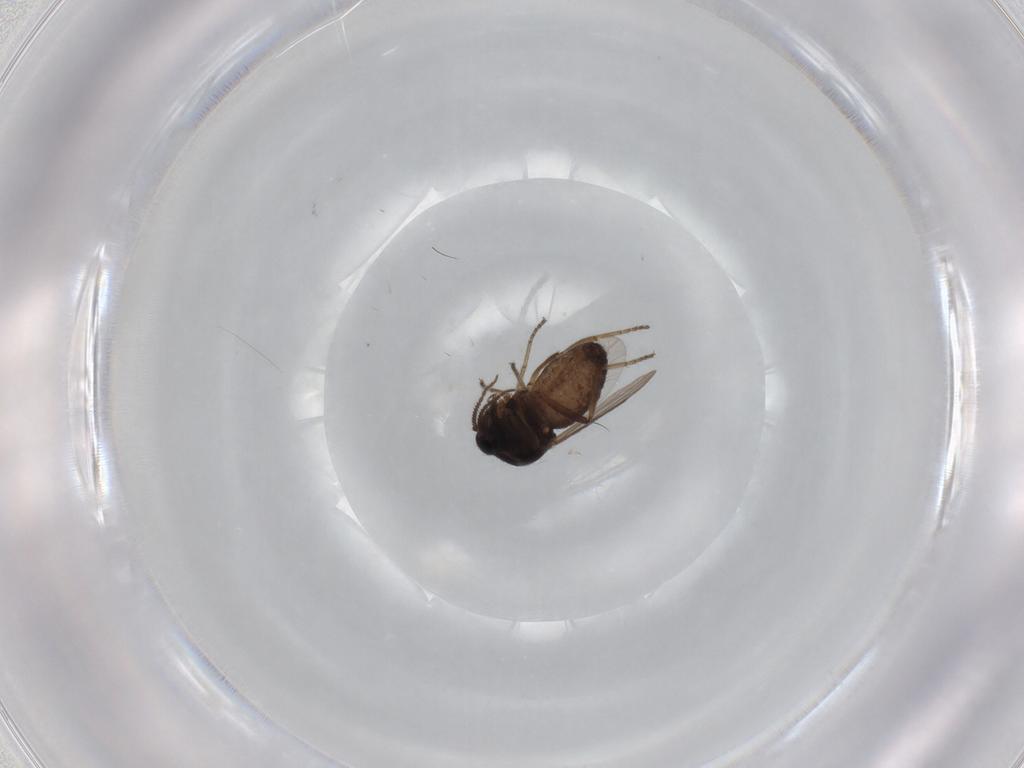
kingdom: Animalia
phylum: Arthropoda
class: Insecta
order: Diptera
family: Ceratopogonidae
